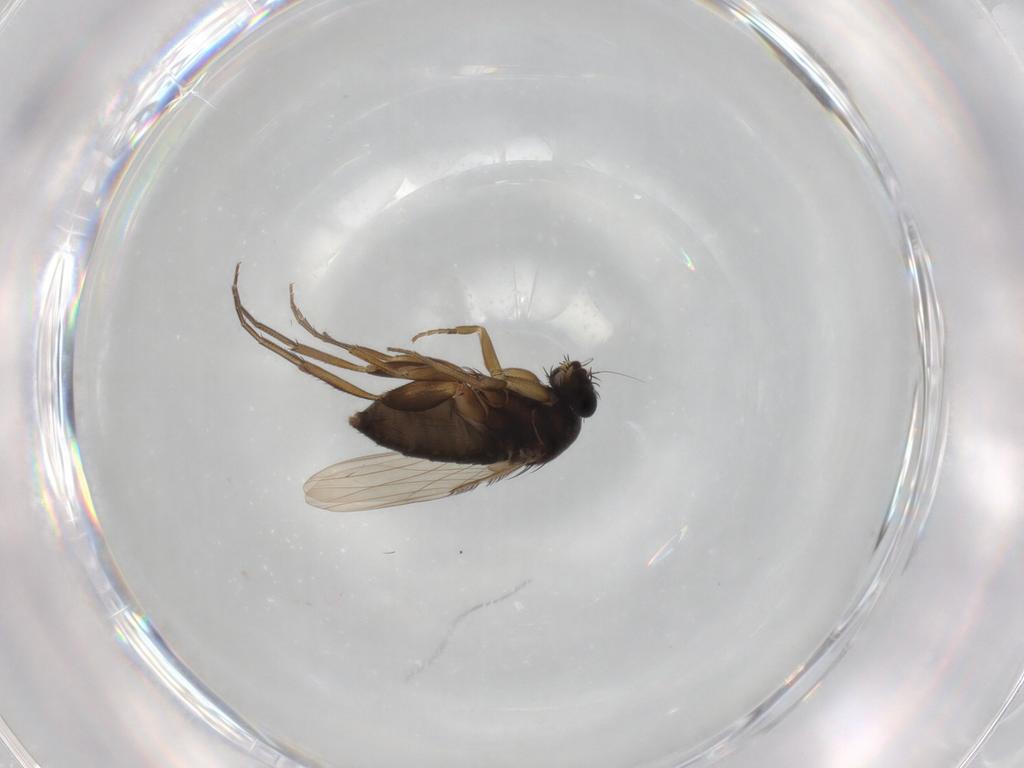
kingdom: Animalia
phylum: Arthropoda
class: Insecta
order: Diptera
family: Phoridae
